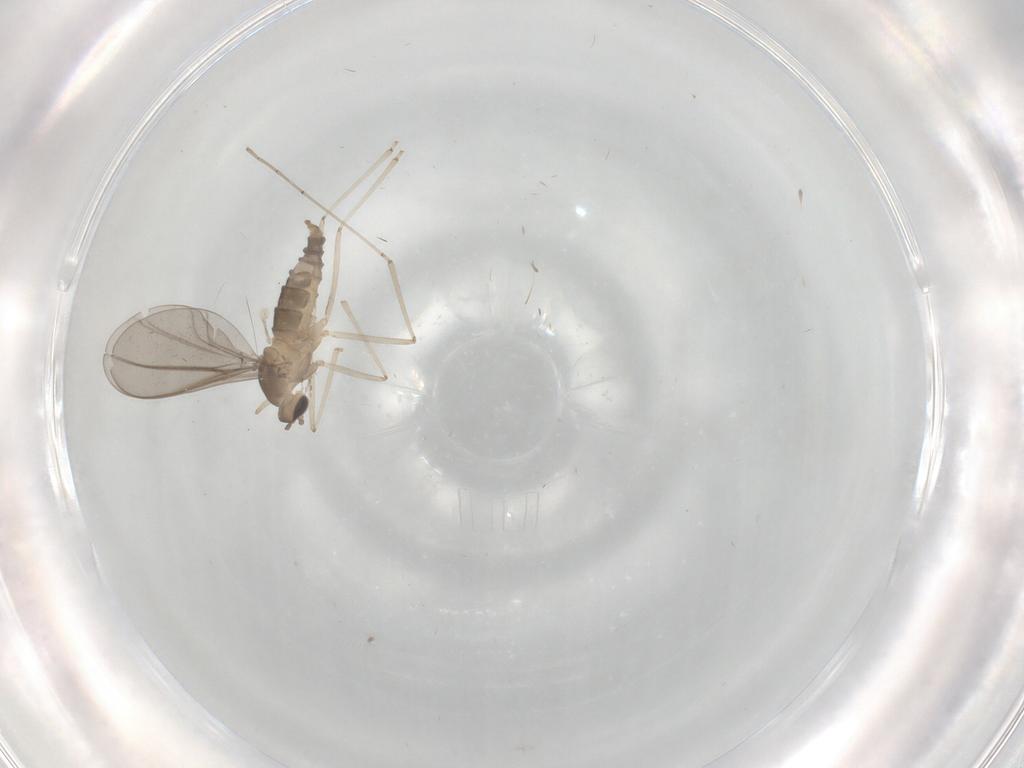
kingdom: Animalia
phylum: Arthropoda
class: Insecta
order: Diptera
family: Cecidomyiidae
